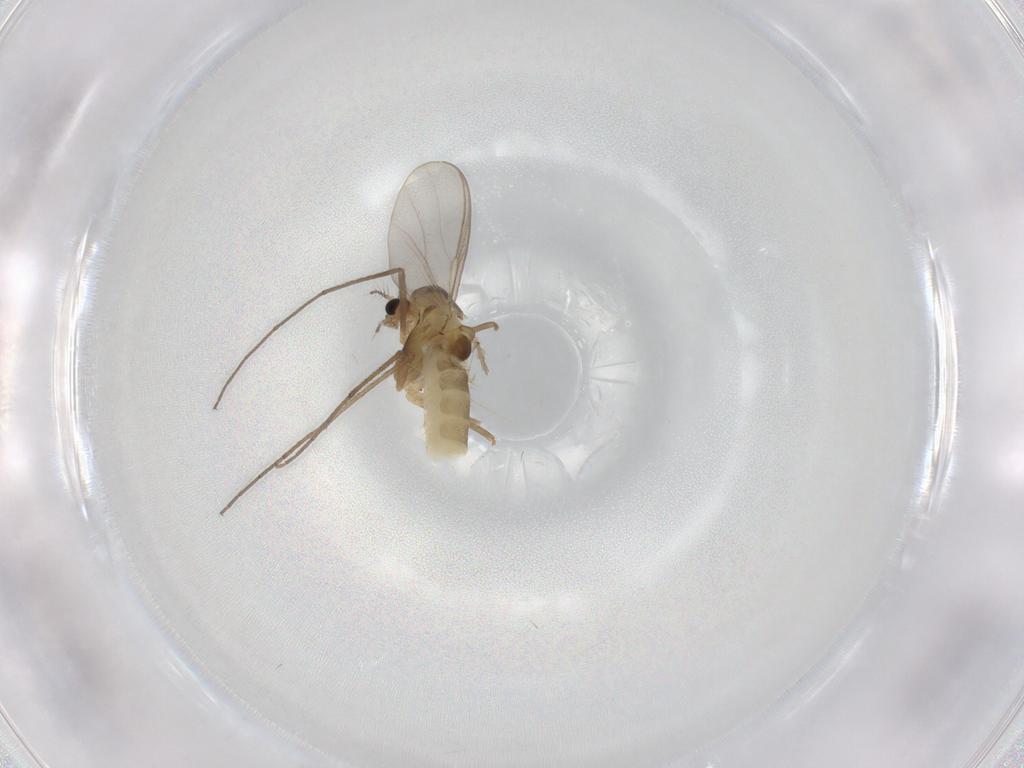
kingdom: Animalia
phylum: Arthropoda
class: Insecta
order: Diptera
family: Chironomidae
